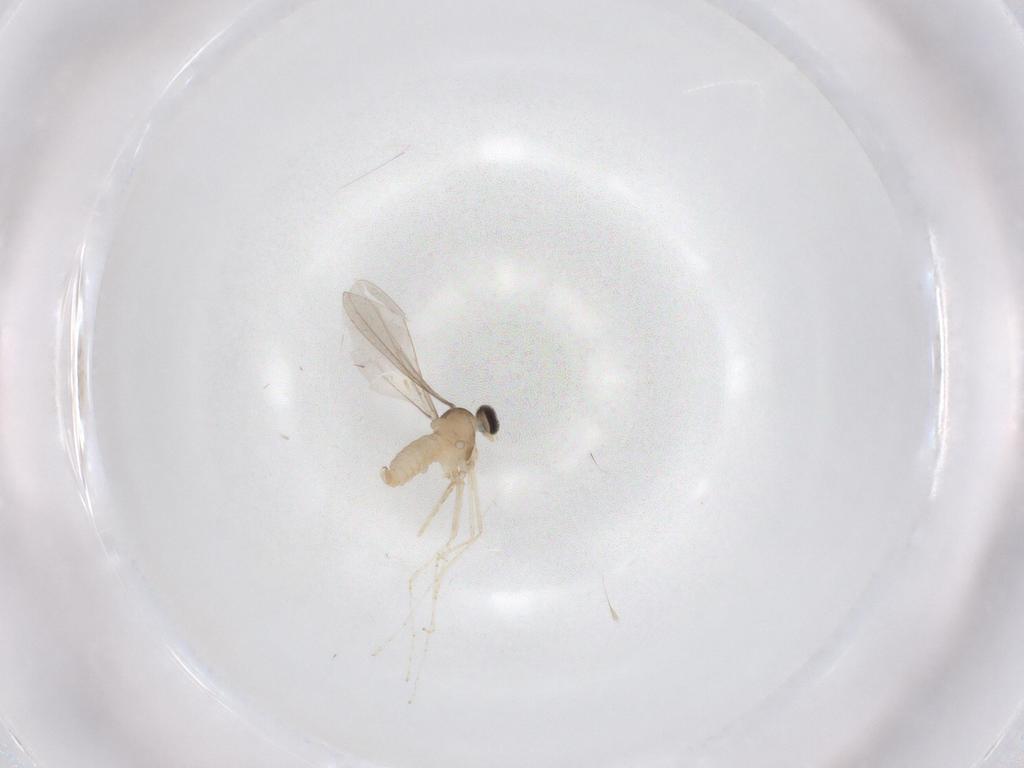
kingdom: Animalia
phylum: Arthropoda
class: Insecta
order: Diptera
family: Cecidomyiidae
